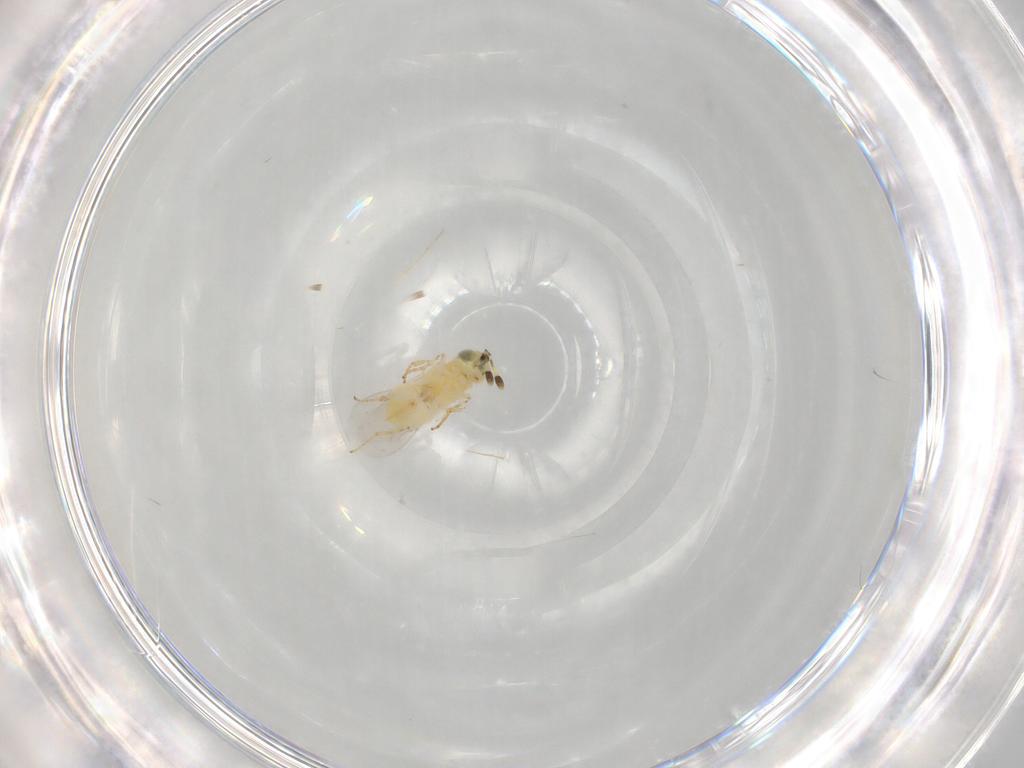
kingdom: Animalia
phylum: Arthropoda
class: Insecta
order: Hymenoptera
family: Encyrtidae
